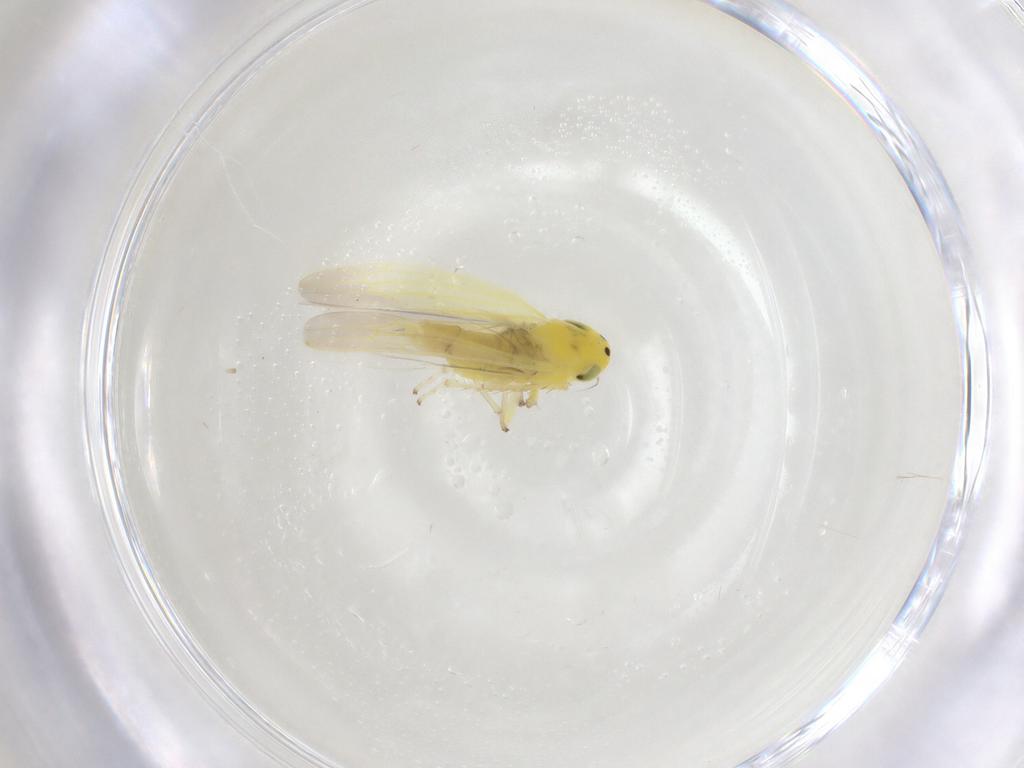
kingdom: Animalia
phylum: Arthropoda
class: Insecta
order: Hemiptera
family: Cicadellidae
